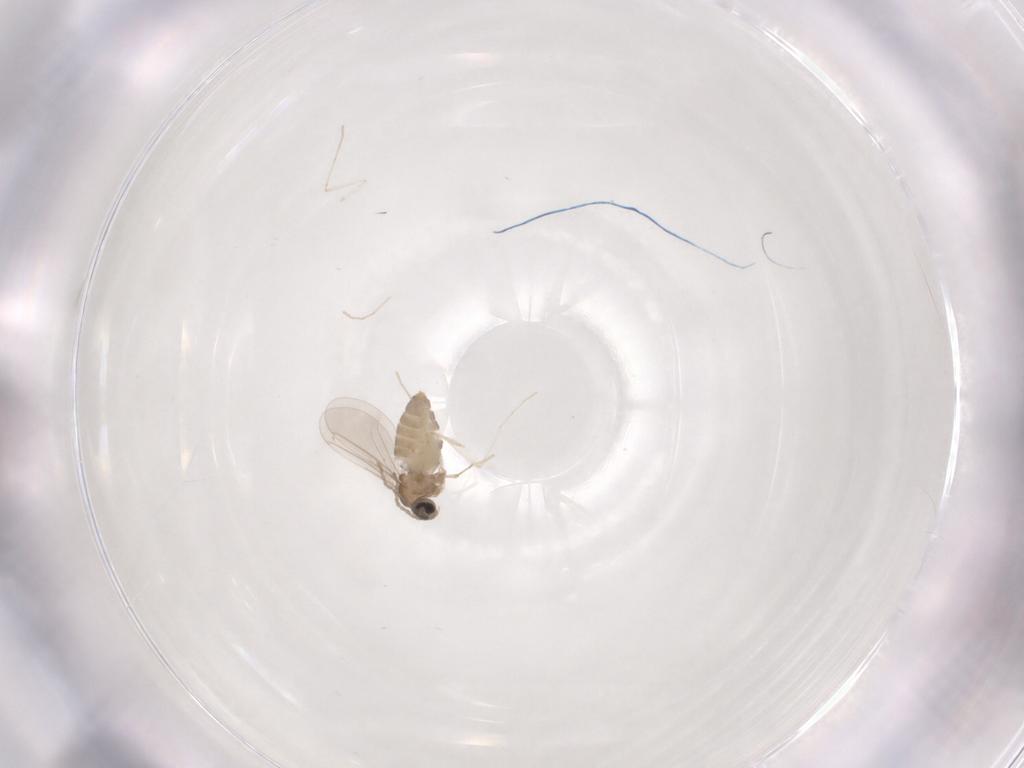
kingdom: Animalia
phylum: Arthropoda
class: Insecta
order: Diptera
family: Cecidomyiidae
